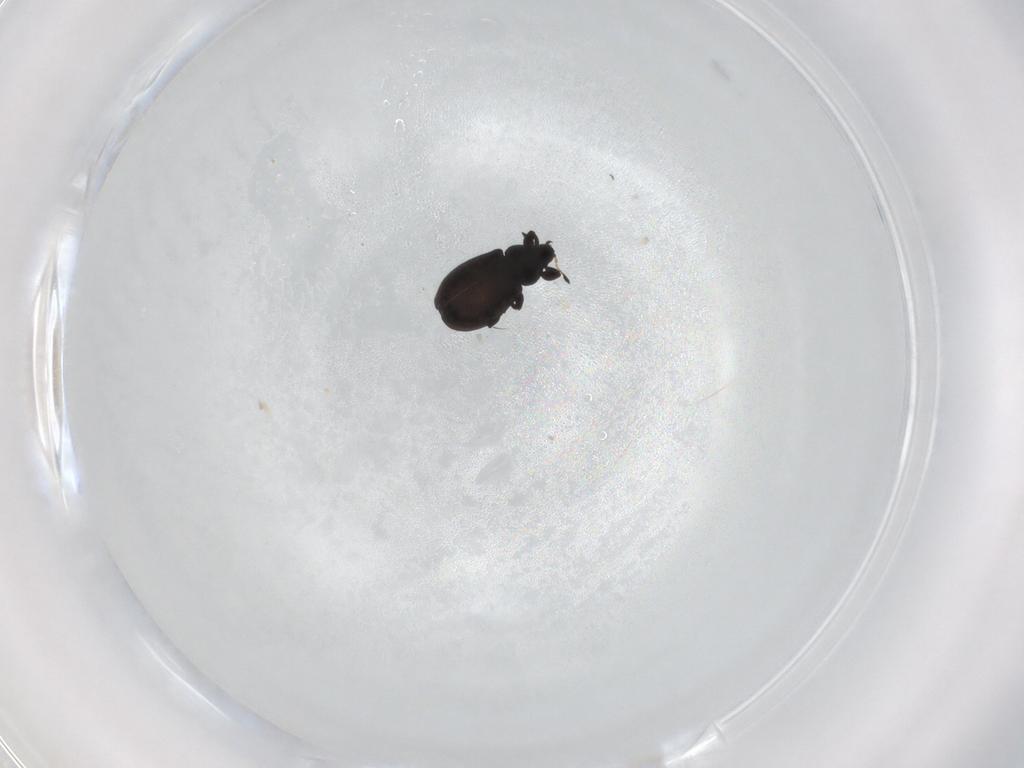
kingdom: Animalia
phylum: Arthropoda
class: Insecta
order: Coleoptera
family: Curculionidae
